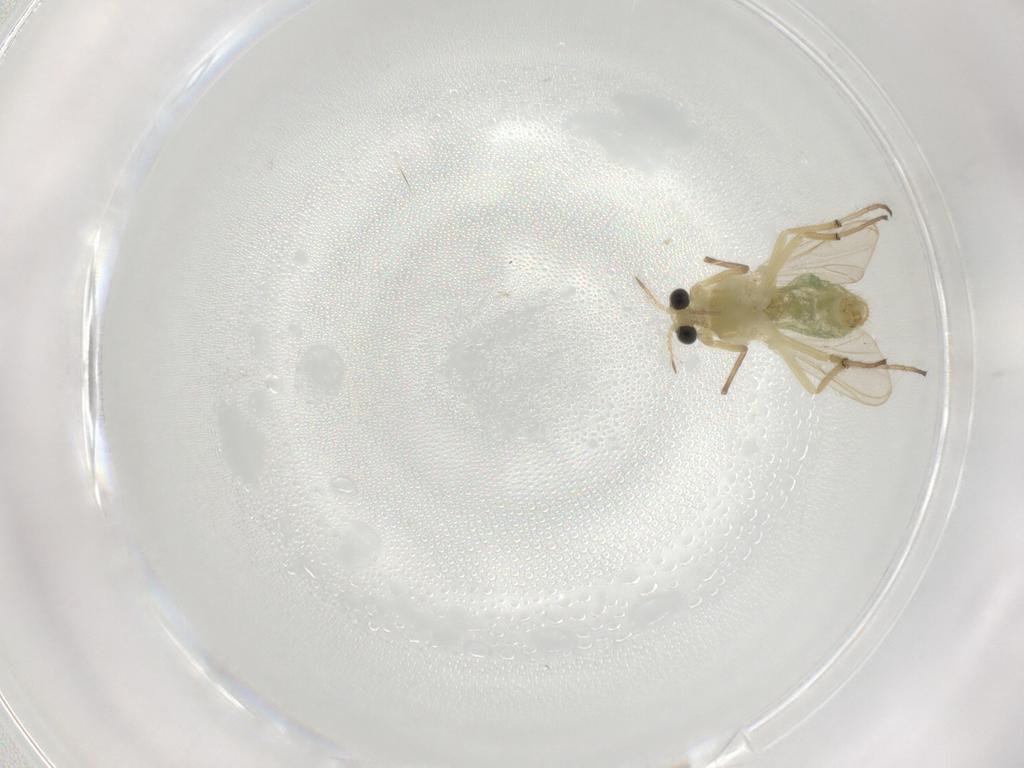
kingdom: Animalia
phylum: Arthropoda
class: Insecta
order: Diptera
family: Chironomidae
